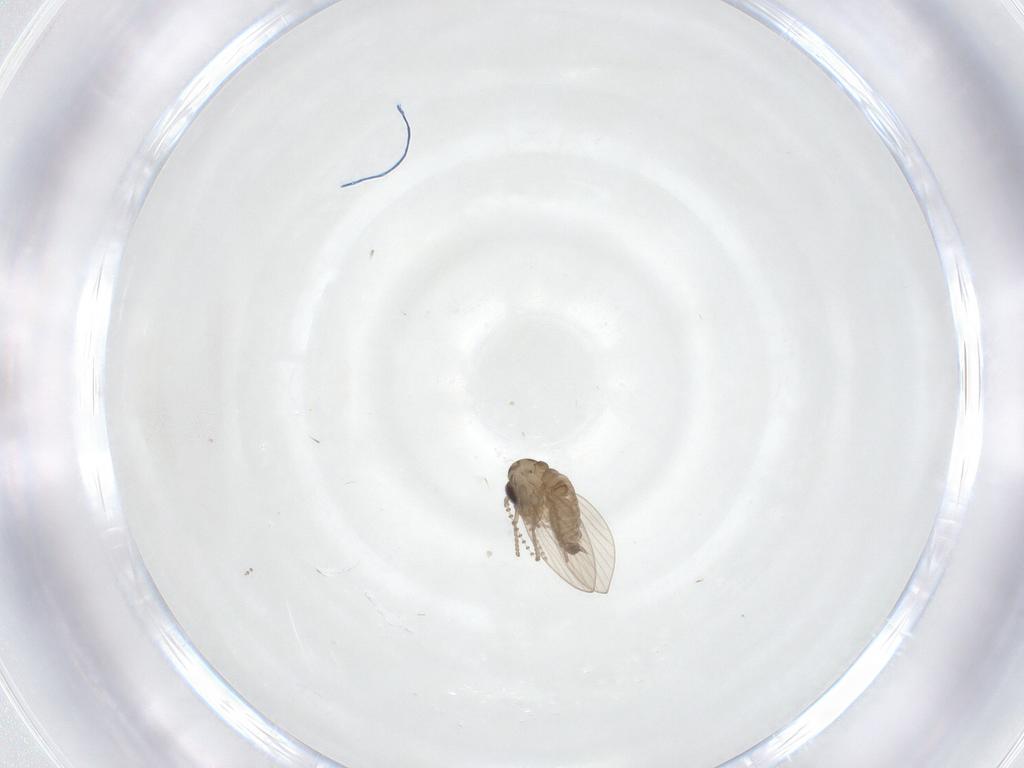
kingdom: Animalia
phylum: Arthropoda
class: Insecta
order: Diptera
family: Psychodidae
